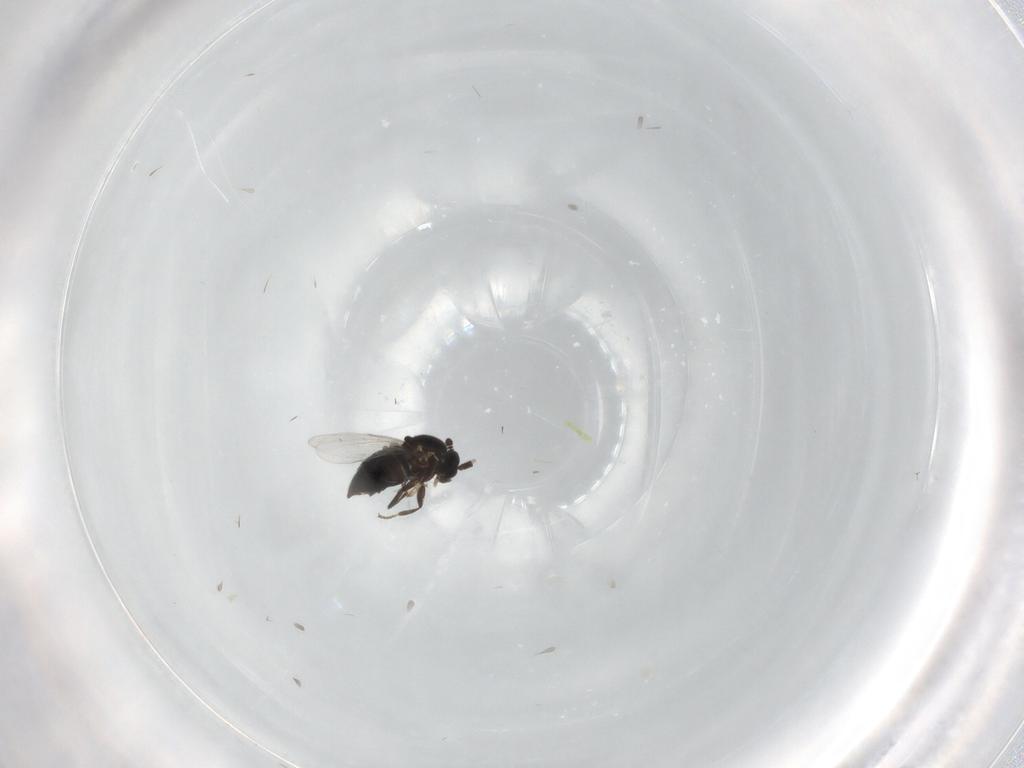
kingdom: Animalia
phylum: Arthropoda
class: Insecta
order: Diptera
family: Scatopsidae
